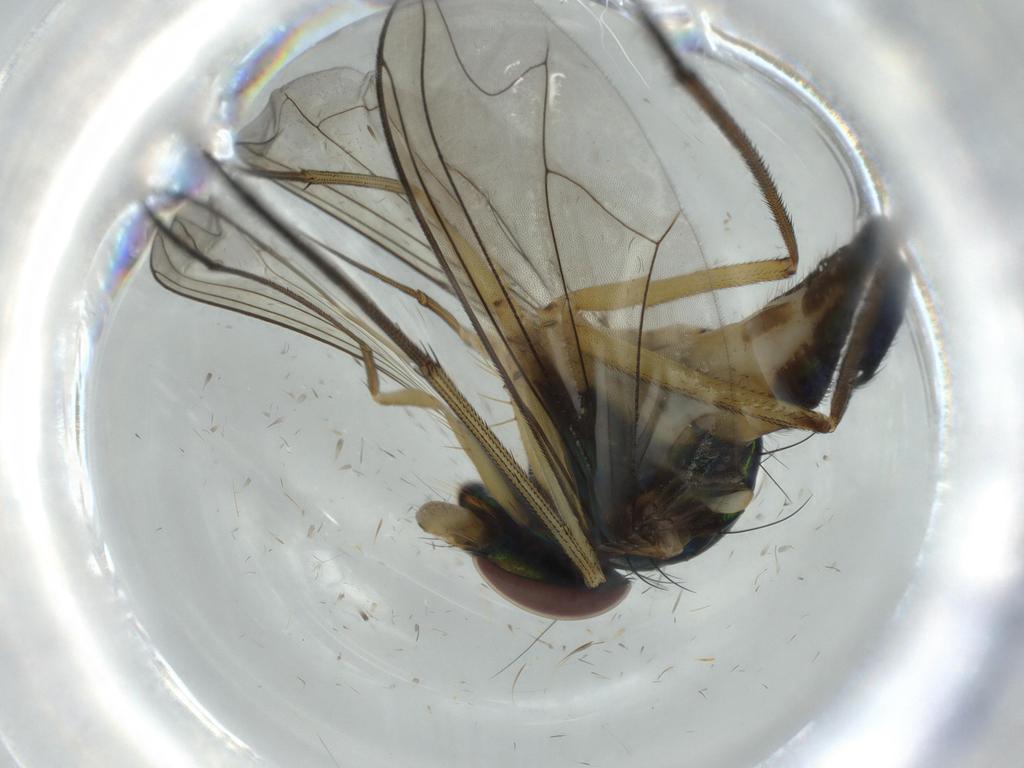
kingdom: Animalia
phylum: Arthropoda
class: Insecta
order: Diptera
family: Dolichopodidae
